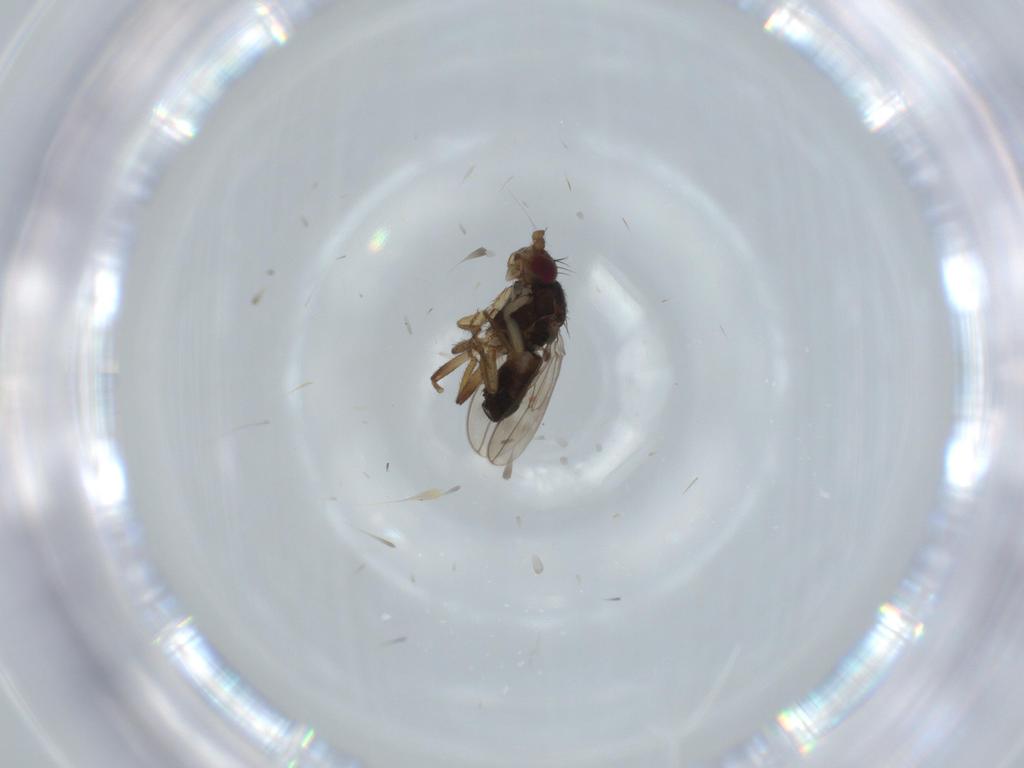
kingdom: Animalia
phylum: Arthropoda
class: Insecta
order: Diptera
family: Sphaeroceridae
